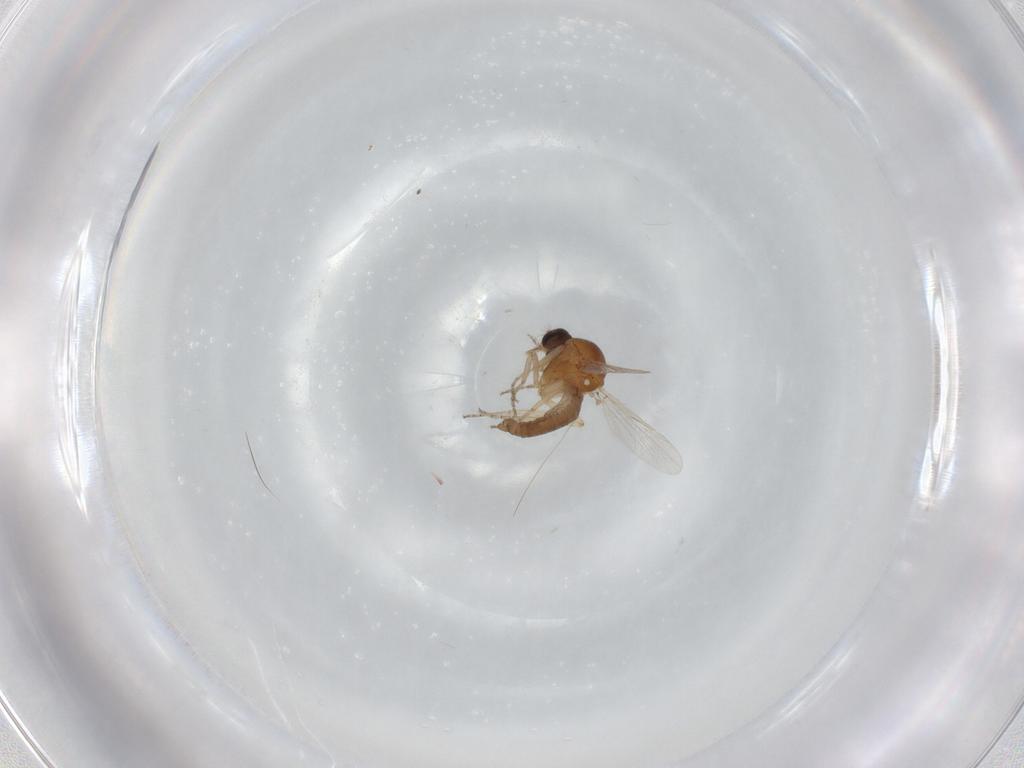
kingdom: Animalia
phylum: Arthropoda
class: Insecta
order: Diptera
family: Ceratopogonidae
